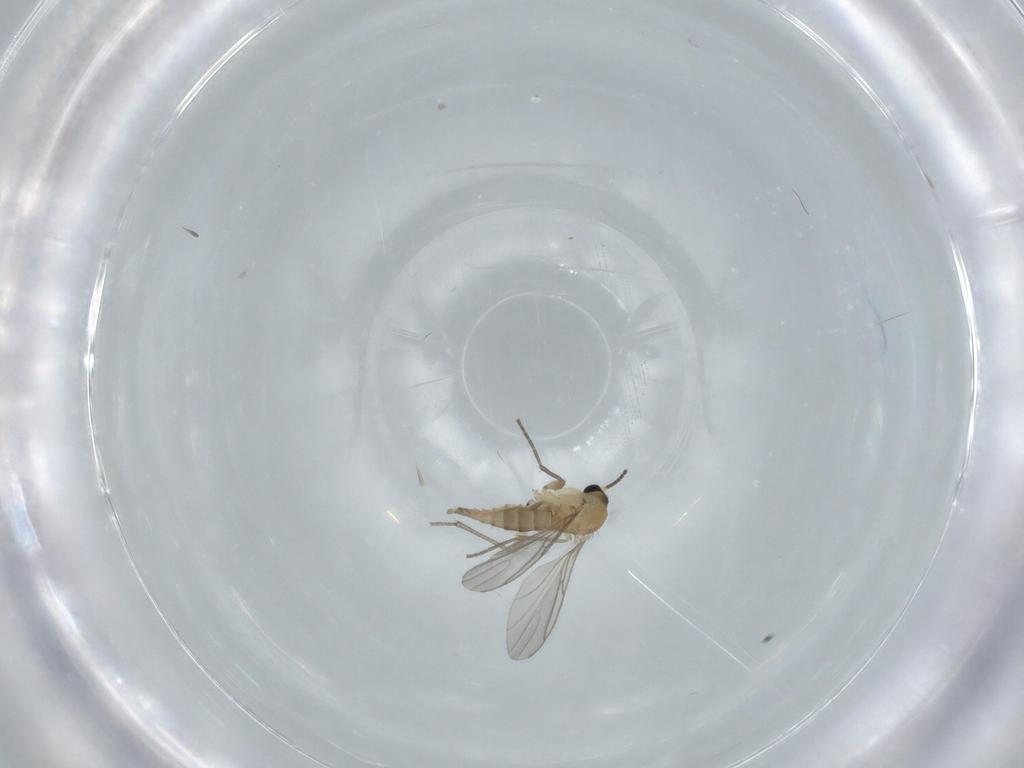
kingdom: Animalia
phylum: Arthropoda
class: Insecta
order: Diptera
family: Sciaridae
